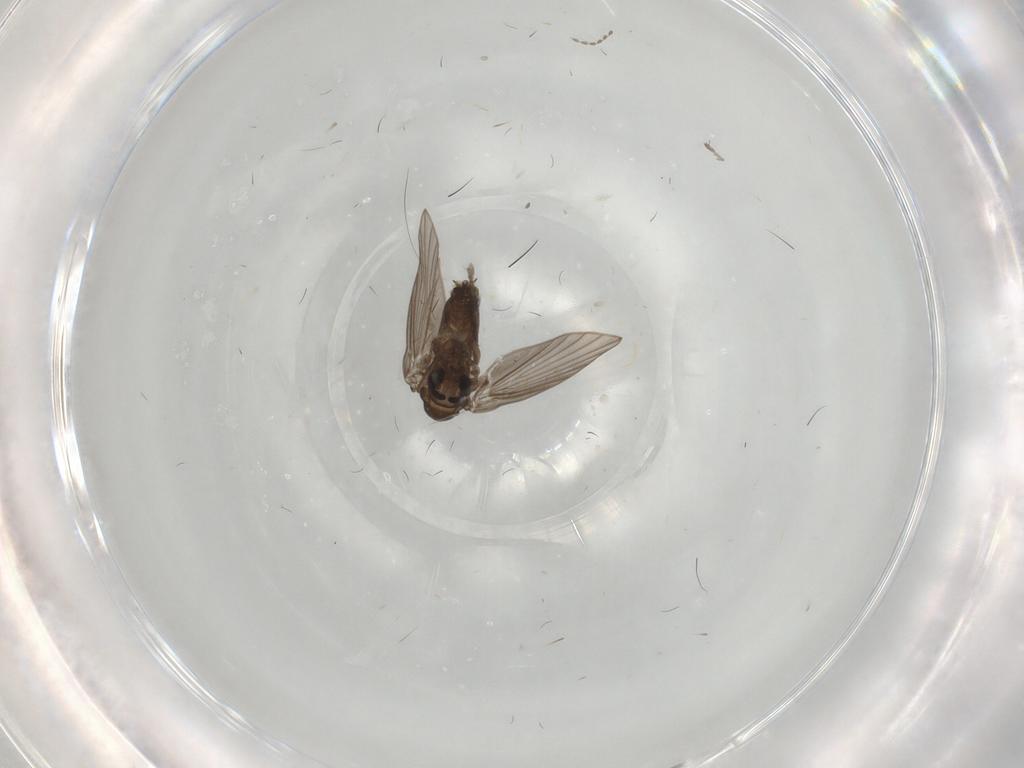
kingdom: Animalia
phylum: Arthropoda
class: Insecta
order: Diptera
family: Psychodidae
